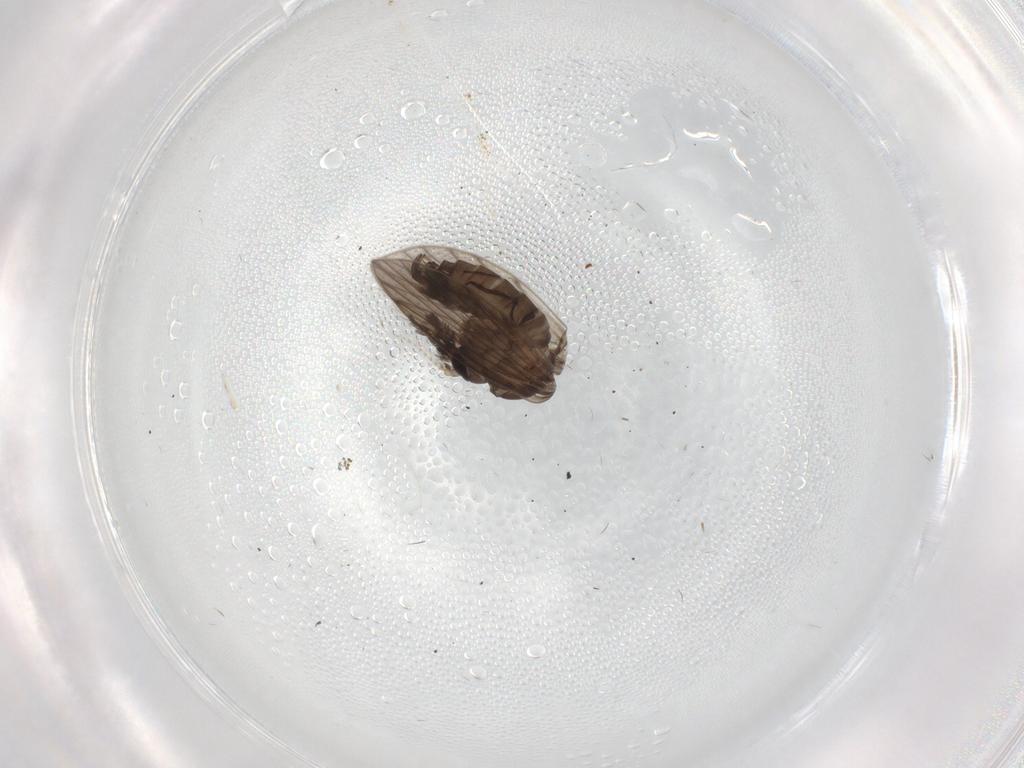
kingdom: Animalia
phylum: Arthropoda
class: Insecta
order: Diptera
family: Psychodidae
